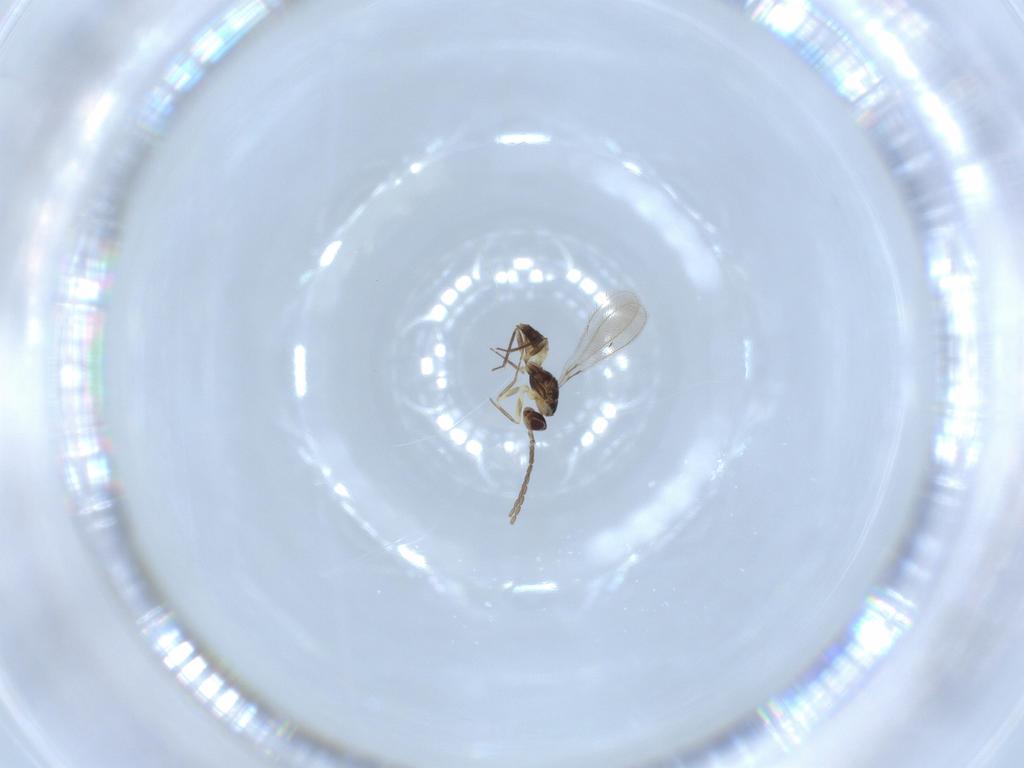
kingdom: Animalia
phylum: Arthropoda
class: Insecta
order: Hymenoptera
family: Mymaridae
